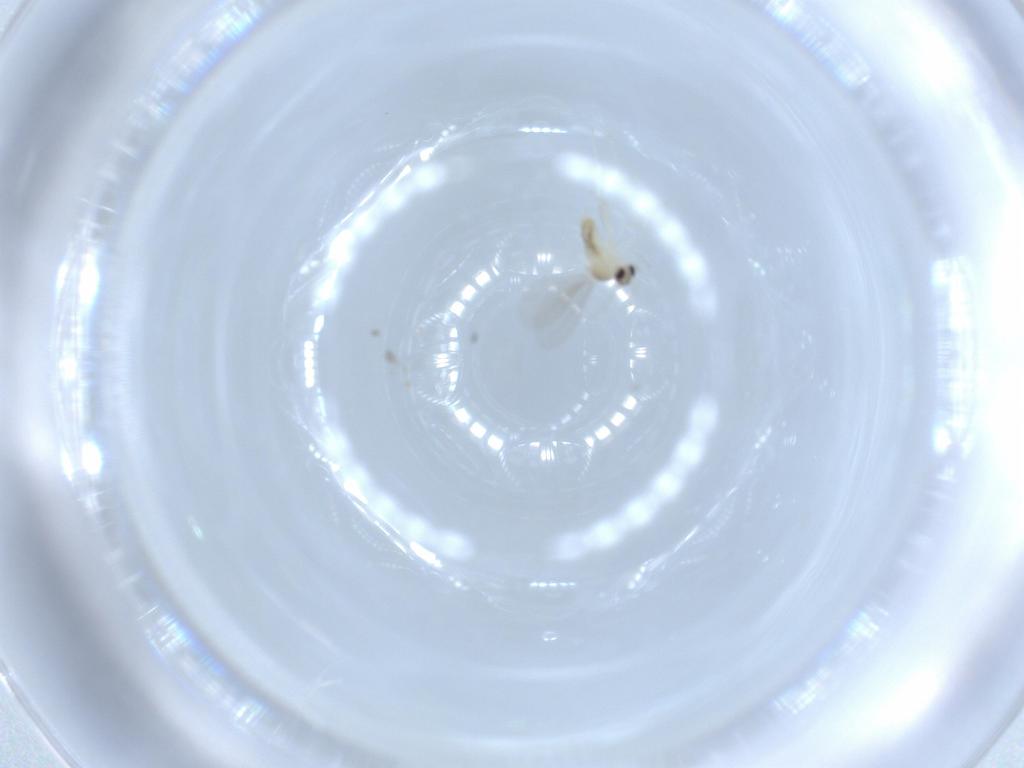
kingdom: Animalia
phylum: Arthropoda
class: Insecta
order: Diptera
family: Cecidomyiidae
